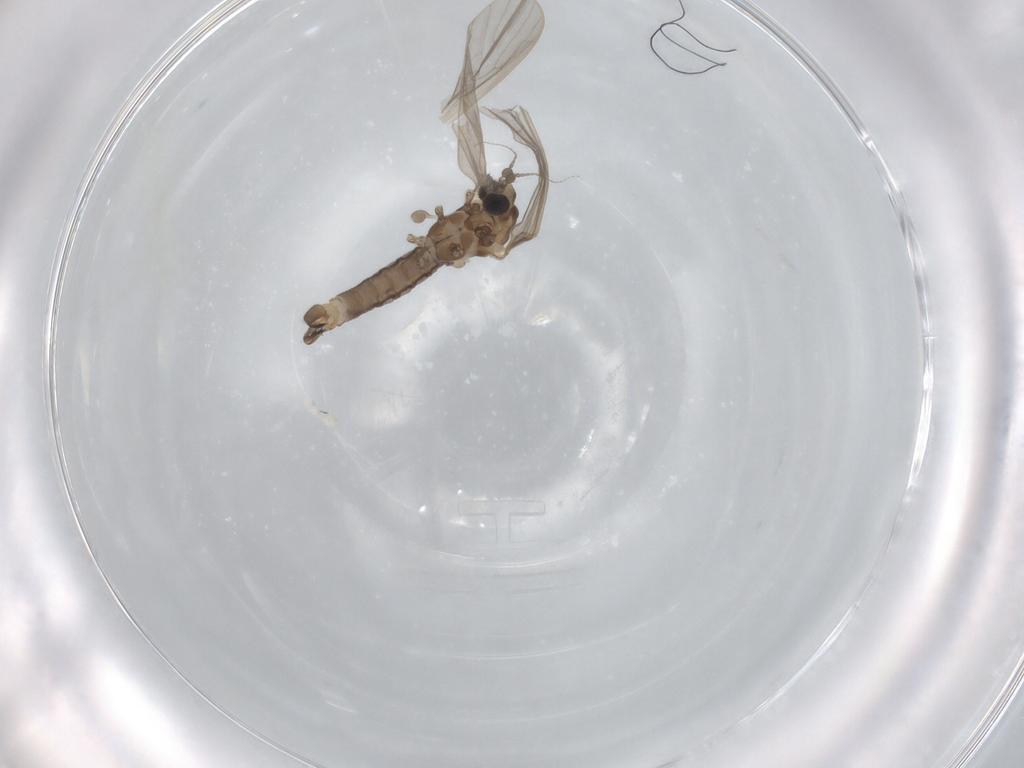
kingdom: Animalia
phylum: Arthropoda
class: Insecta
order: Diptera
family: Limoniidae
